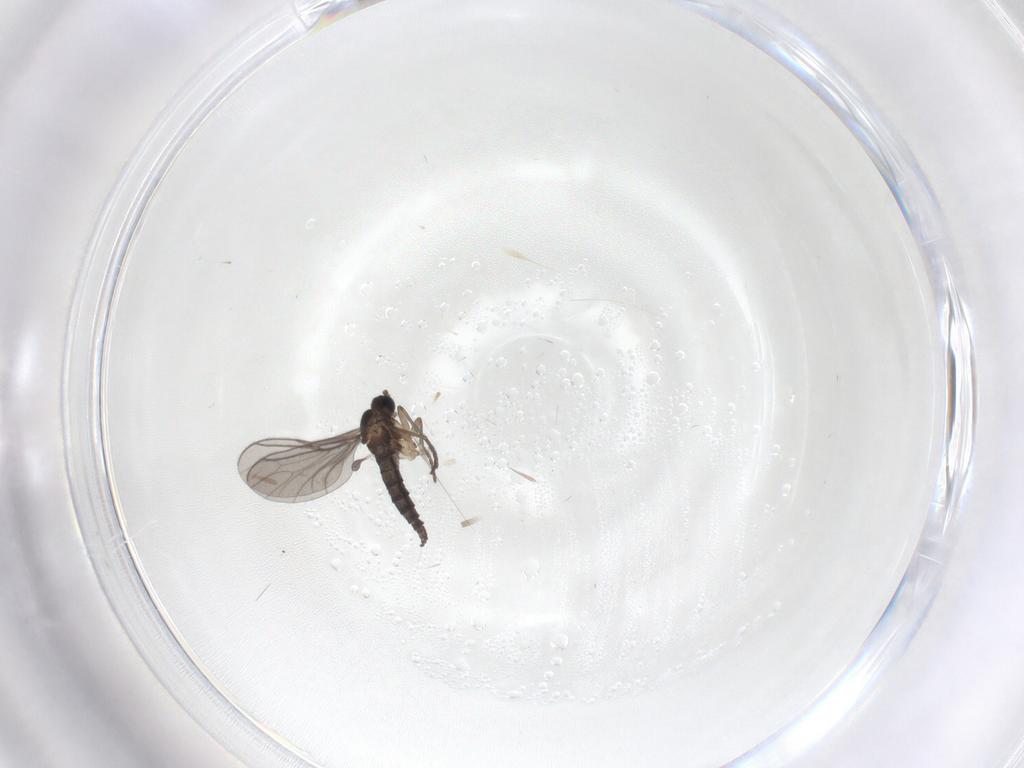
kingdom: Animalia
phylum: Arthropoda
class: Insecta
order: Diptera
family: Sciaridae
